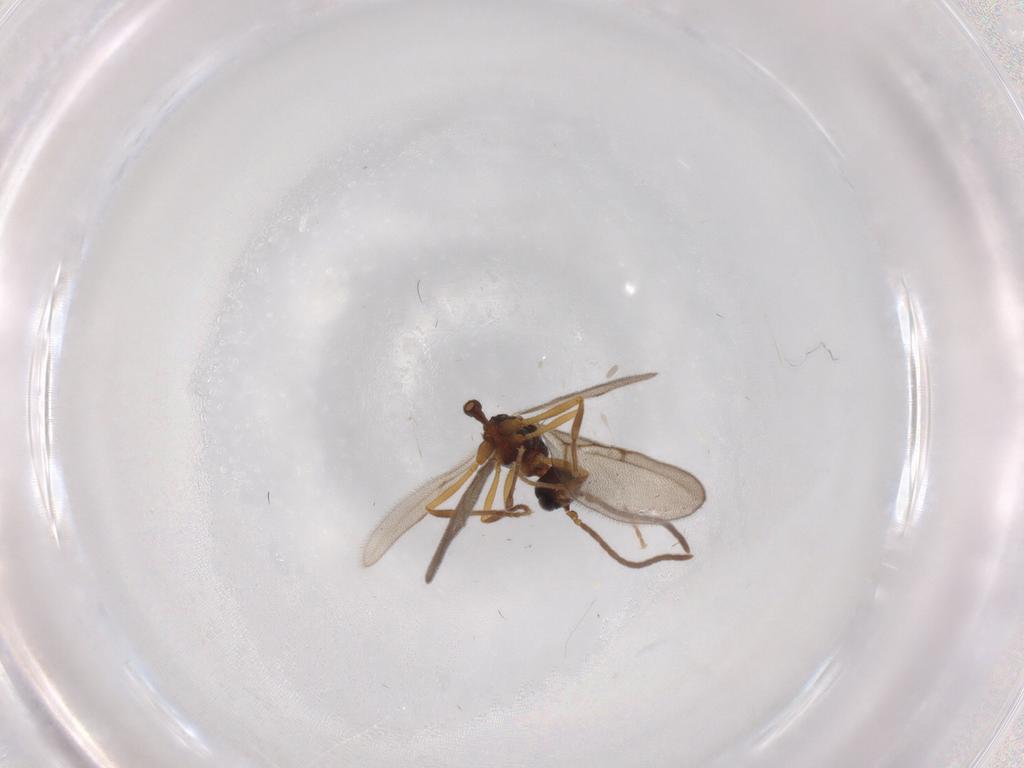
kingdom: Animalia
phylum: Arthropoda
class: Insecta
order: Hymenoptera
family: Formicidae
